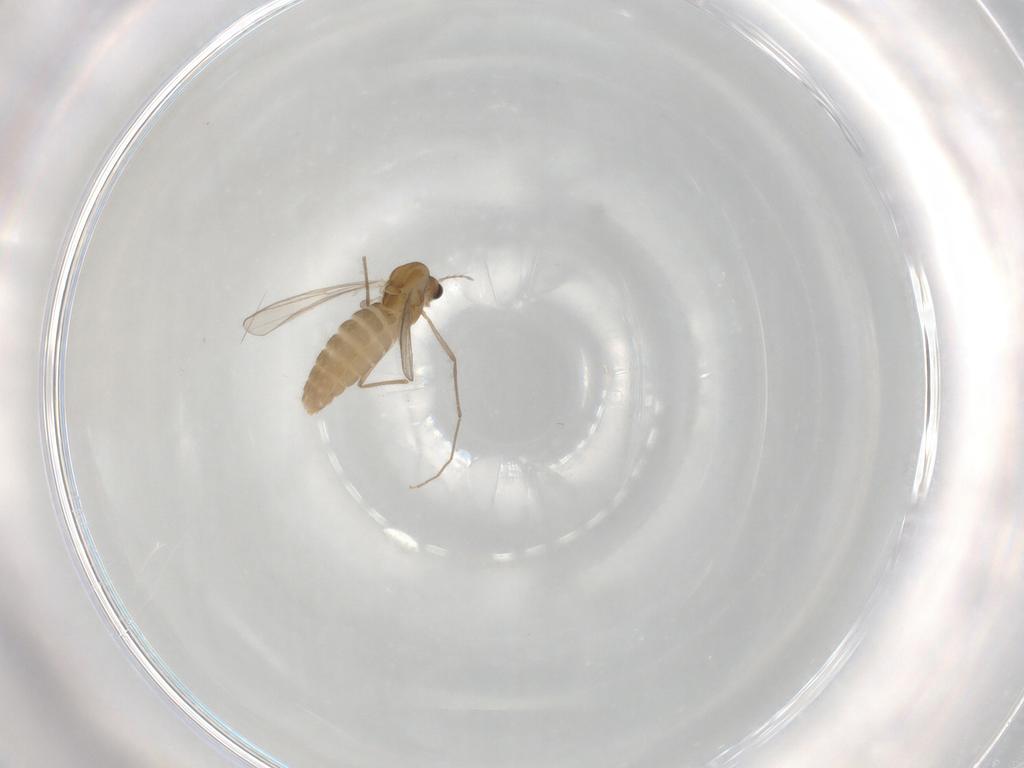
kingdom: Animalia
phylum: Arthropoda
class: Insecta
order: Diptera
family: Chironomidae
